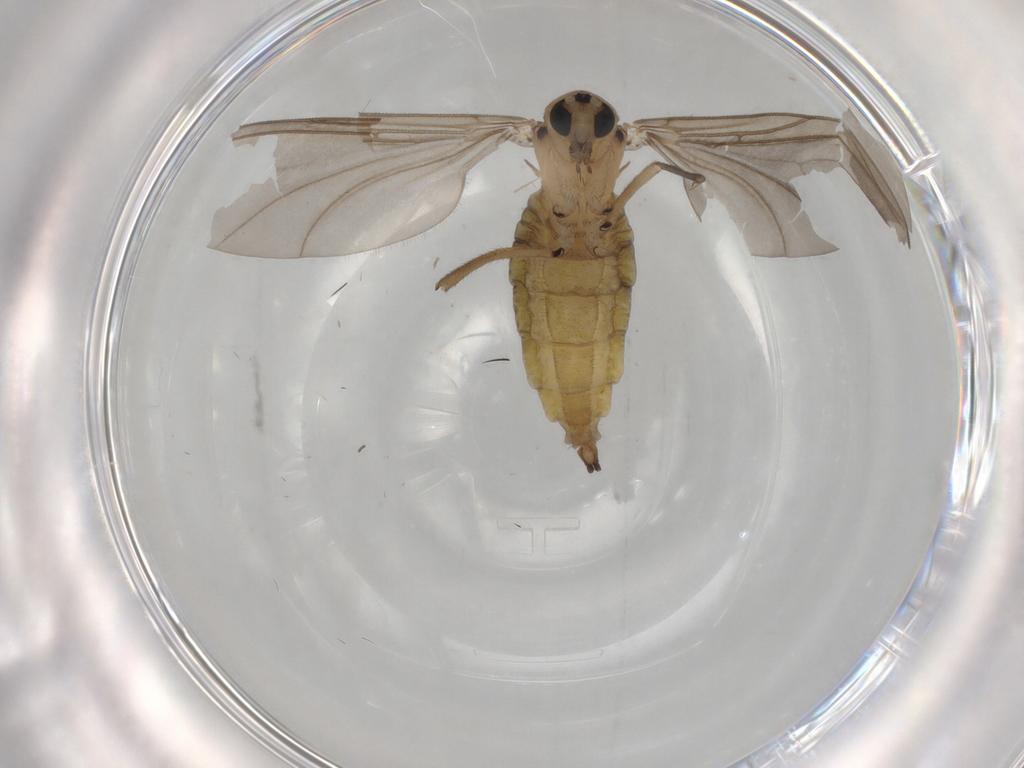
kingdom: Animalia
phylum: Arthropoda
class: Insecta
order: Diptera
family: Sciaridae
